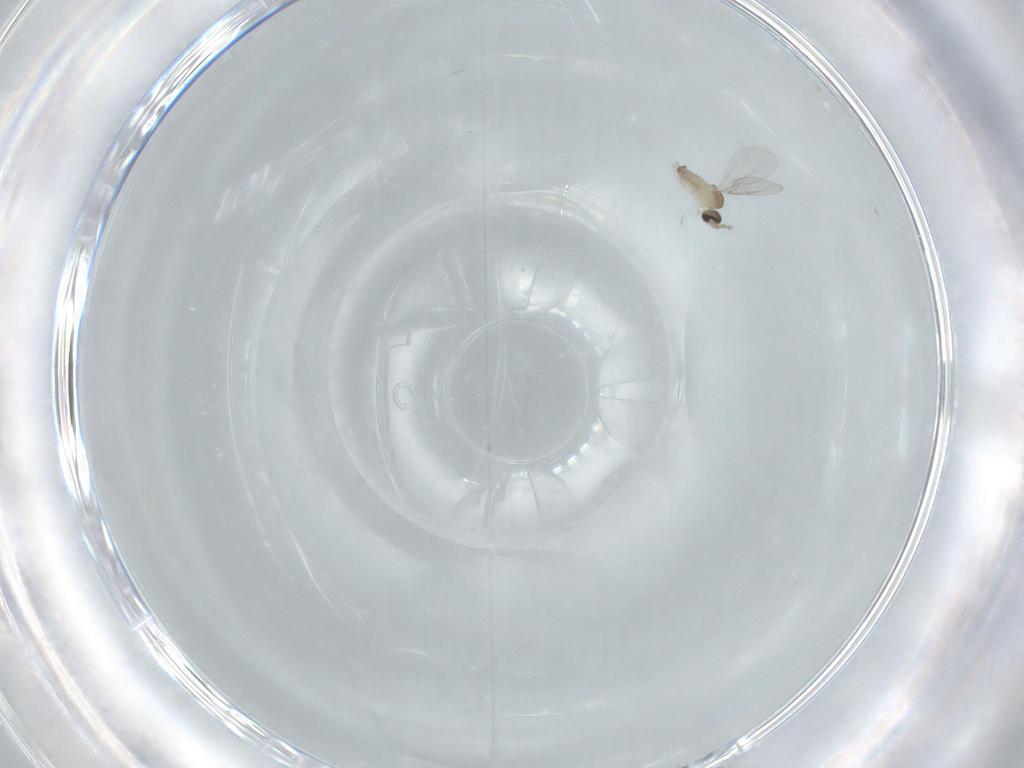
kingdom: Animalia
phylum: Arthropoda
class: Insecta
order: Diptera
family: Cecidomyiidae
